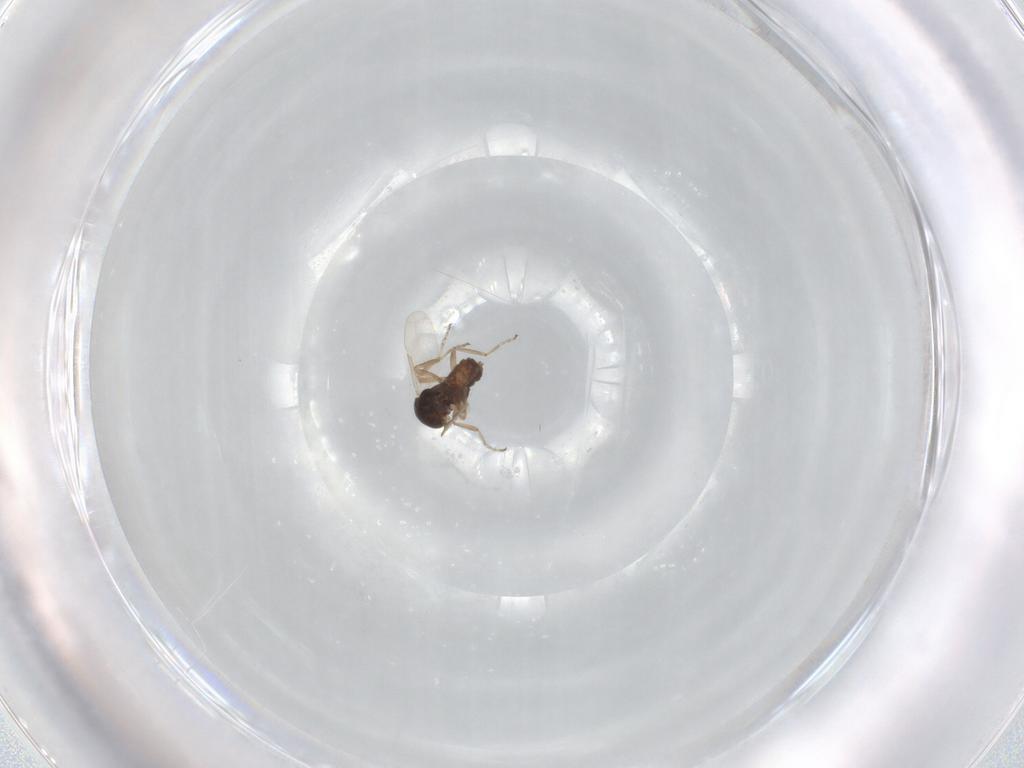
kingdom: Animalia
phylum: Arthropoda
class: Insecta
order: Diptera
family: Ceratopogonidae
